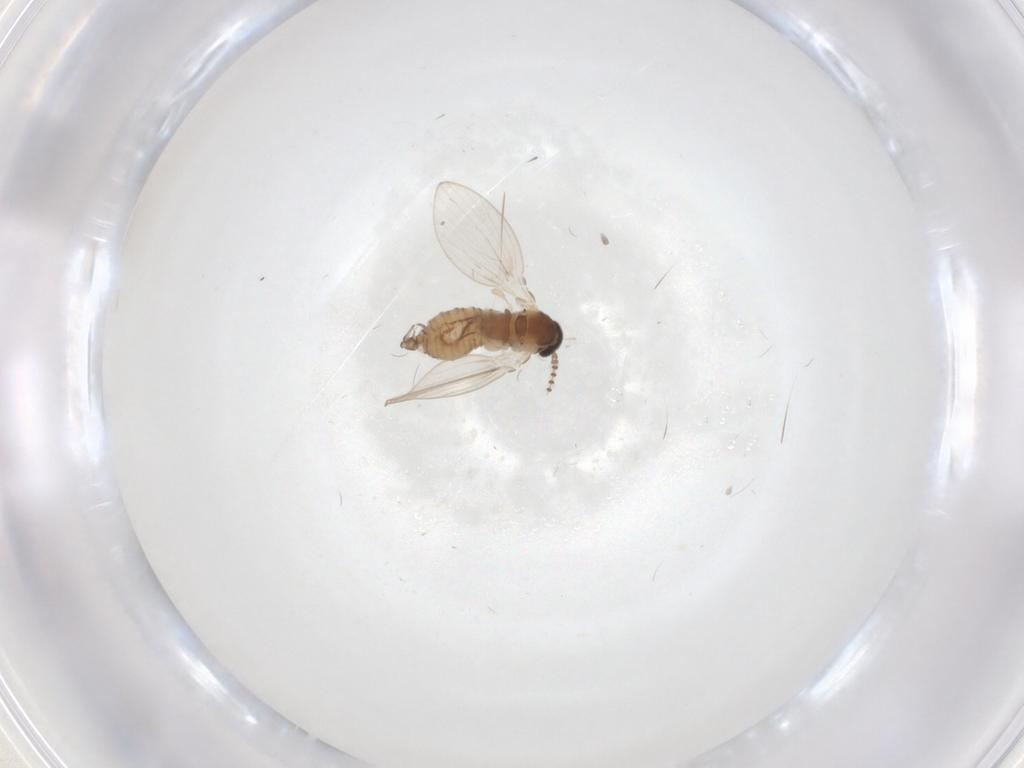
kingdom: Animalia
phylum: Arthropoda
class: Insecta
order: Diptera
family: Psychodidae
